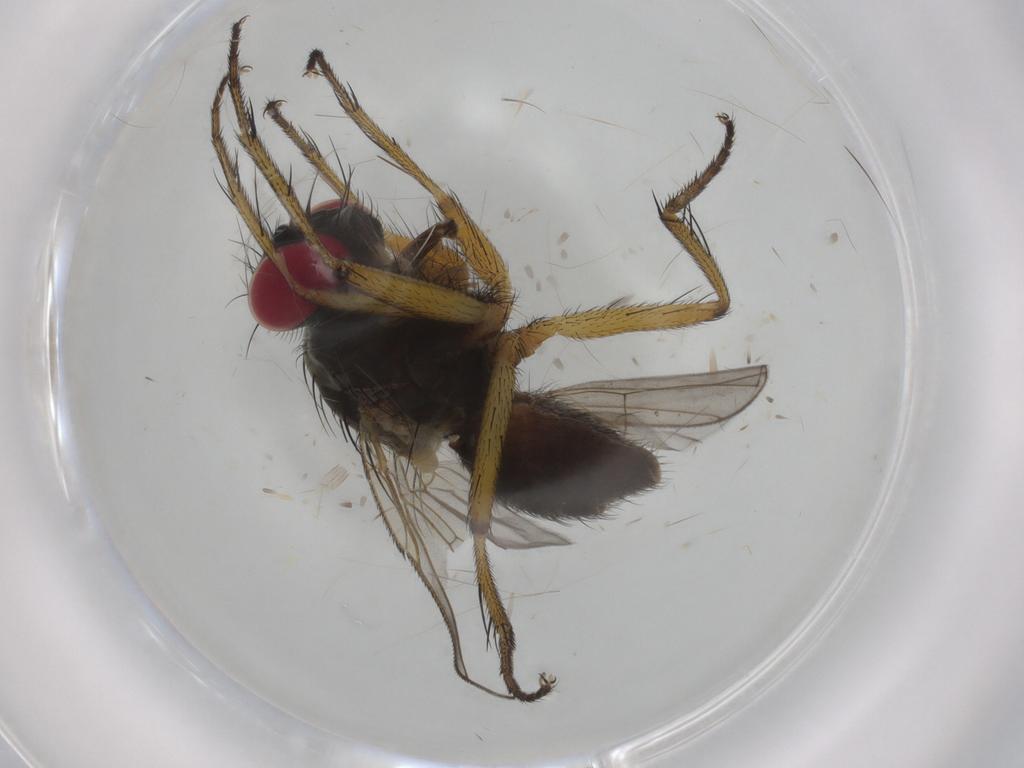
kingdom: Animalia
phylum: Arthropoda
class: Insecta
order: Diptera
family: Muscidae
